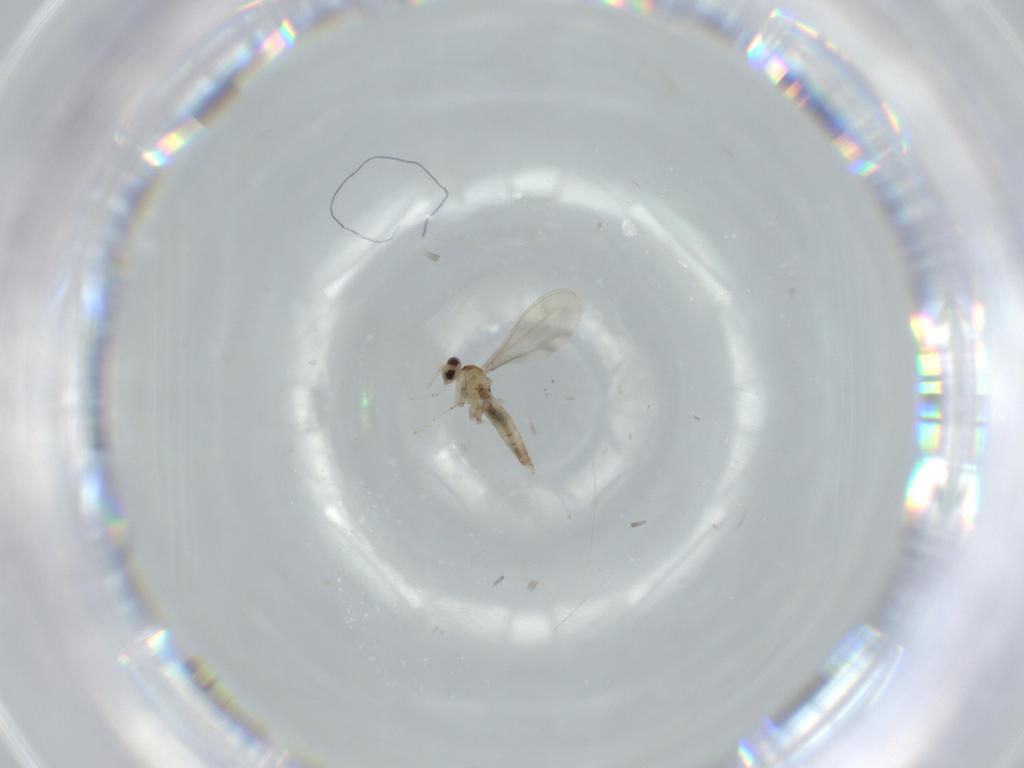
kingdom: Animalia
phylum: Arthropoda
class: Insecta
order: Diptera
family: Cecidomyiidae
